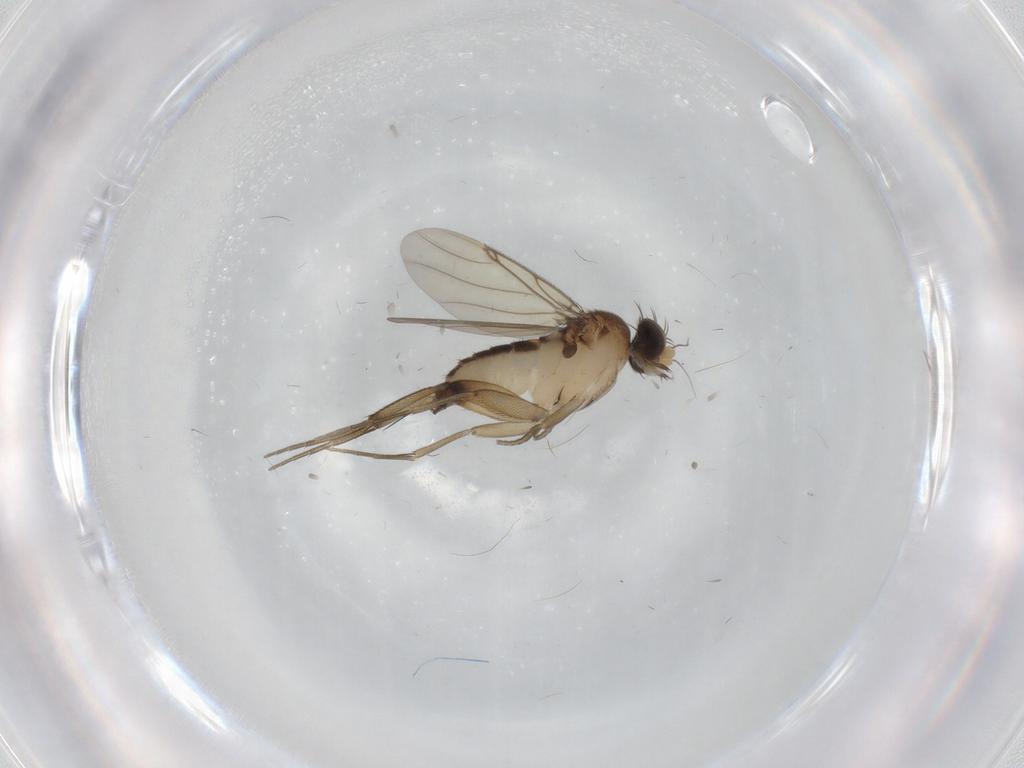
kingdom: Animalia
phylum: Arthropoda
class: Insecta
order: Diptera
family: Phoridae
